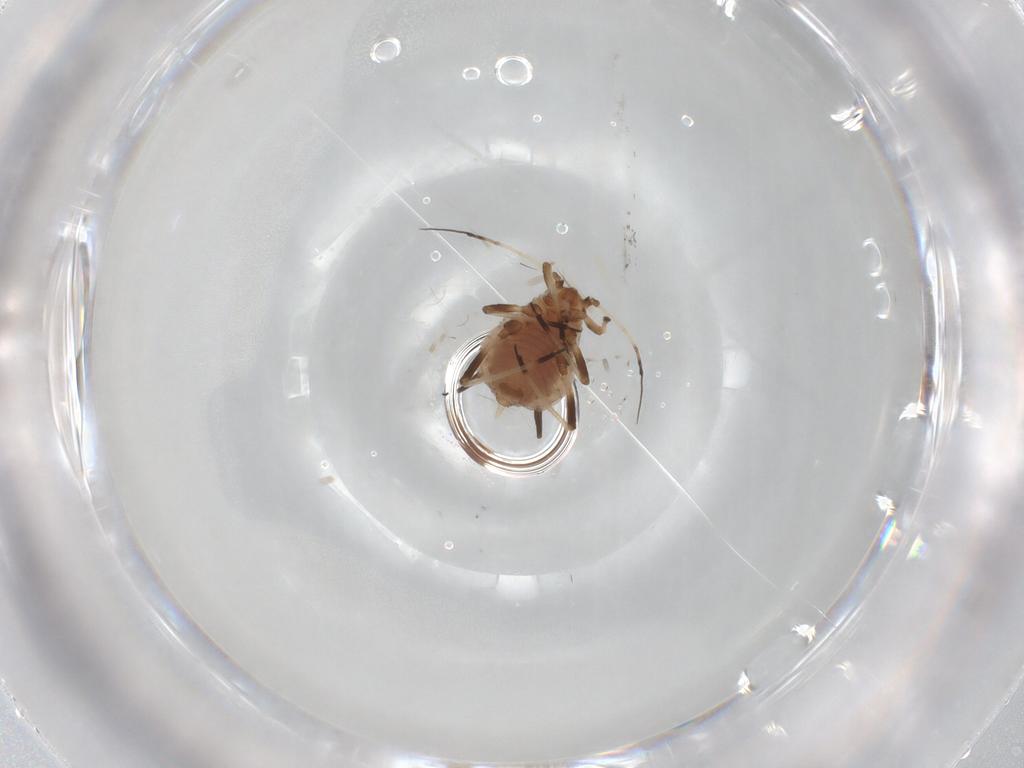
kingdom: Animalia
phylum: Arthropoda
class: Insecta
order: Hemiptera
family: Aphididae
